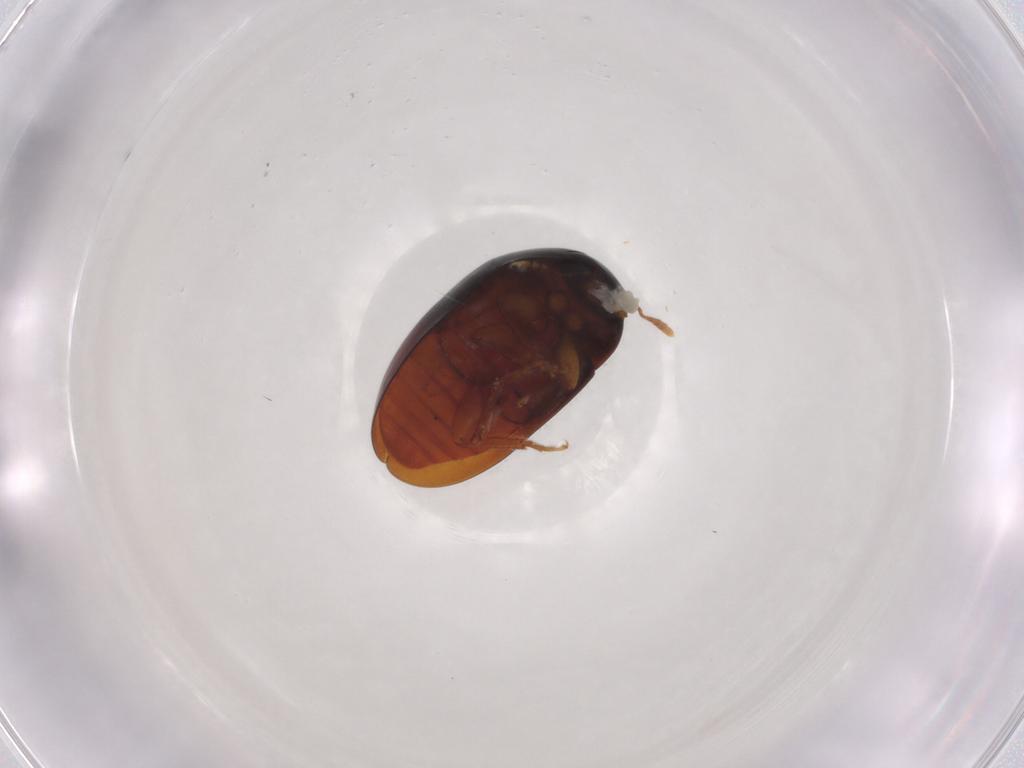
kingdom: Animalia
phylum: Arthropoda
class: Insecta
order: Coleoptera
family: Phalacridae
